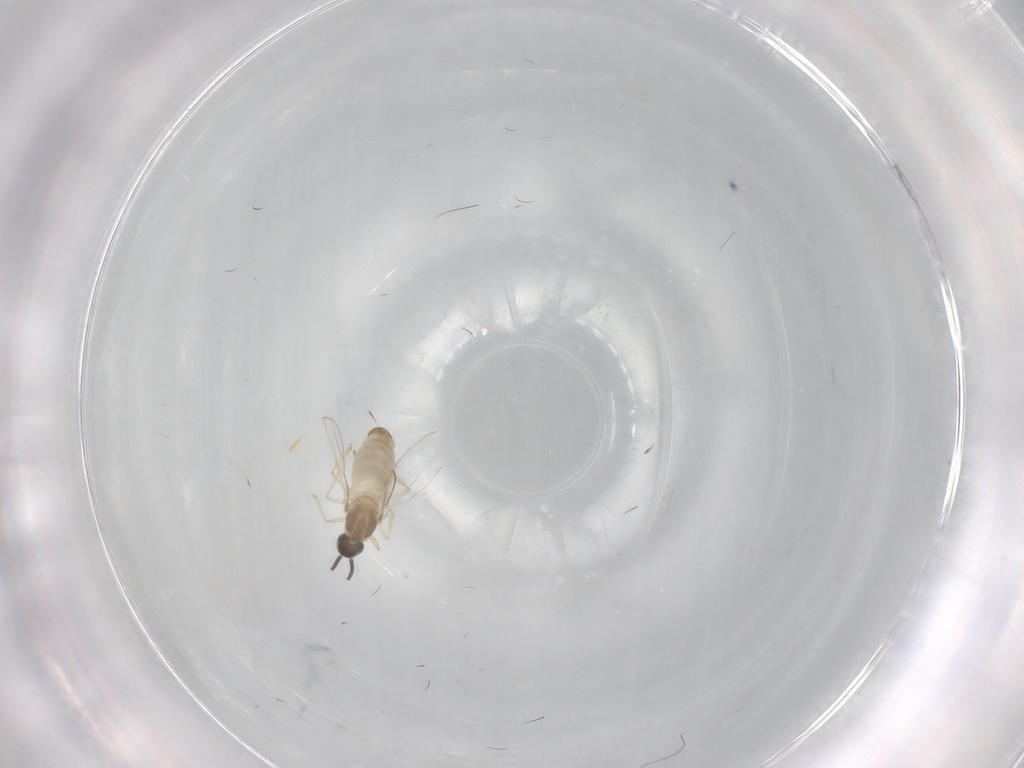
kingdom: Animalia
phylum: Arthropoda
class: Insecta
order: Diptera
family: Cecidomyiidae
